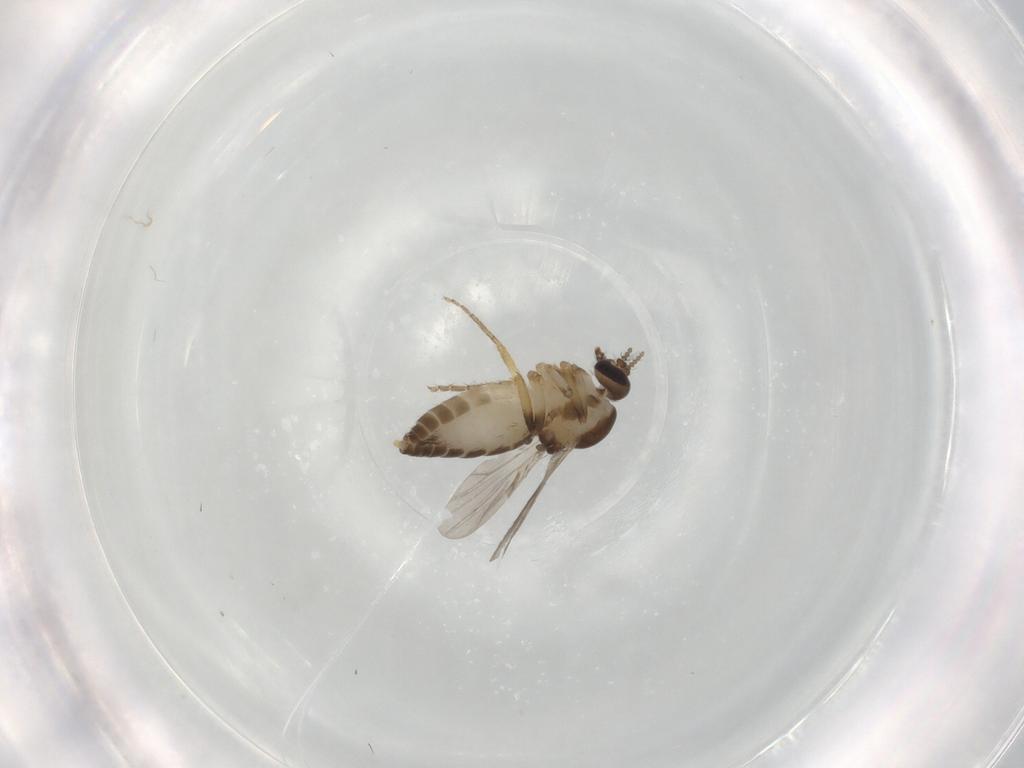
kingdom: Animalia
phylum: Arthropoda
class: Insecta
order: Diptera
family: Ceratopogonidae
